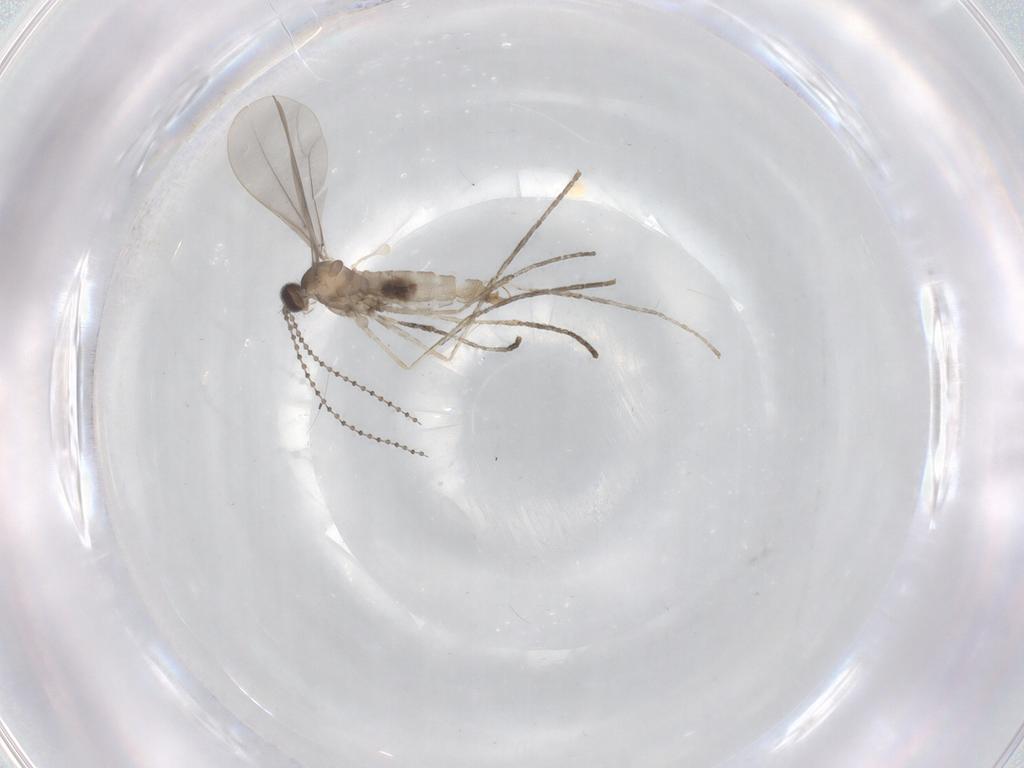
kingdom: Animalia
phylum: Arthropoda
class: Insecta
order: Diptera
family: Cecidomyiidae
